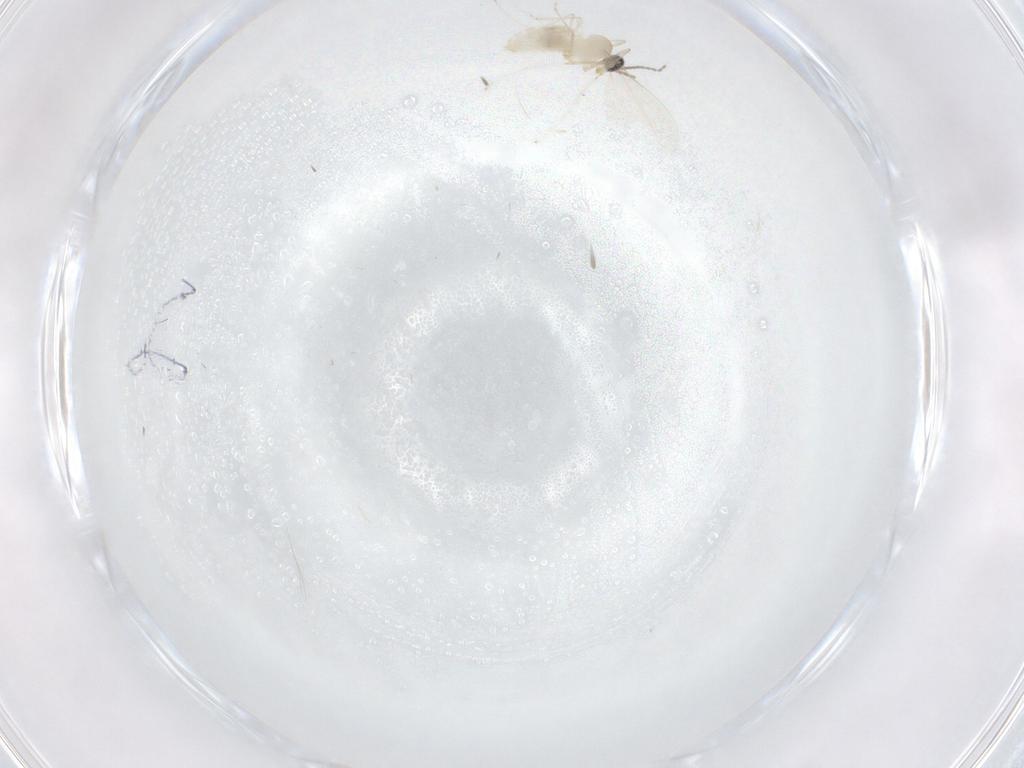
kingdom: Animalia
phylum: Arthropoda
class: Insecta
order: Diptera
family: Cecidomyiidae
